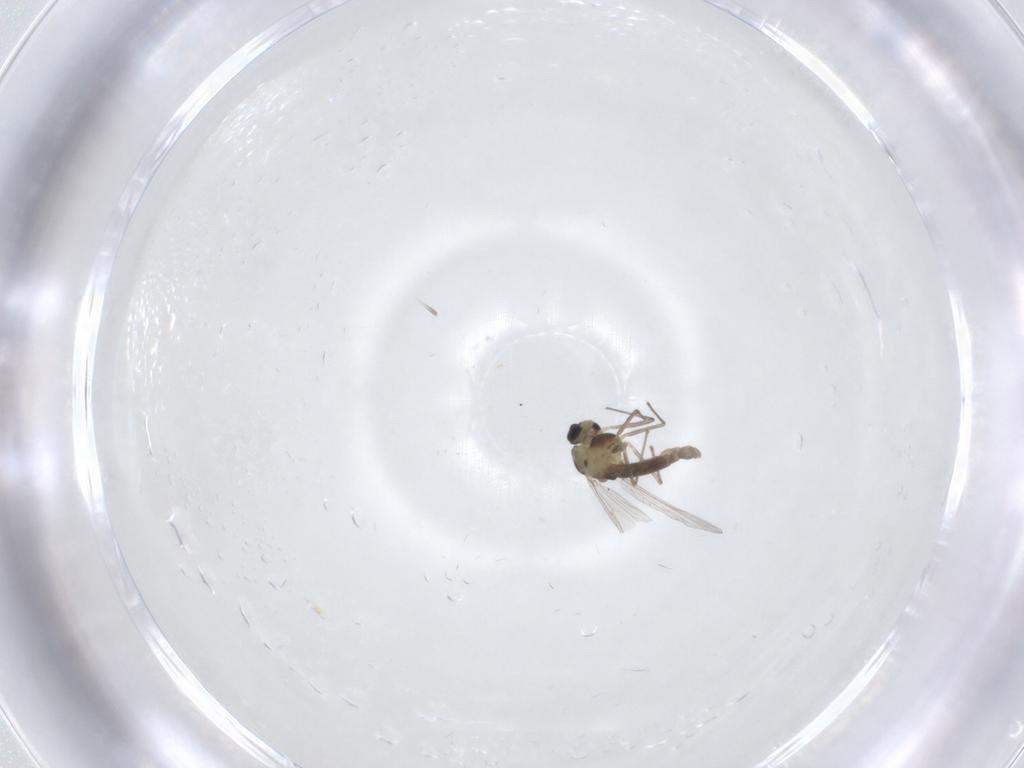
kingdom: Animalia
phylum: Arthropoda
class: Insecta
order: Diptera
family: Chironomidae
